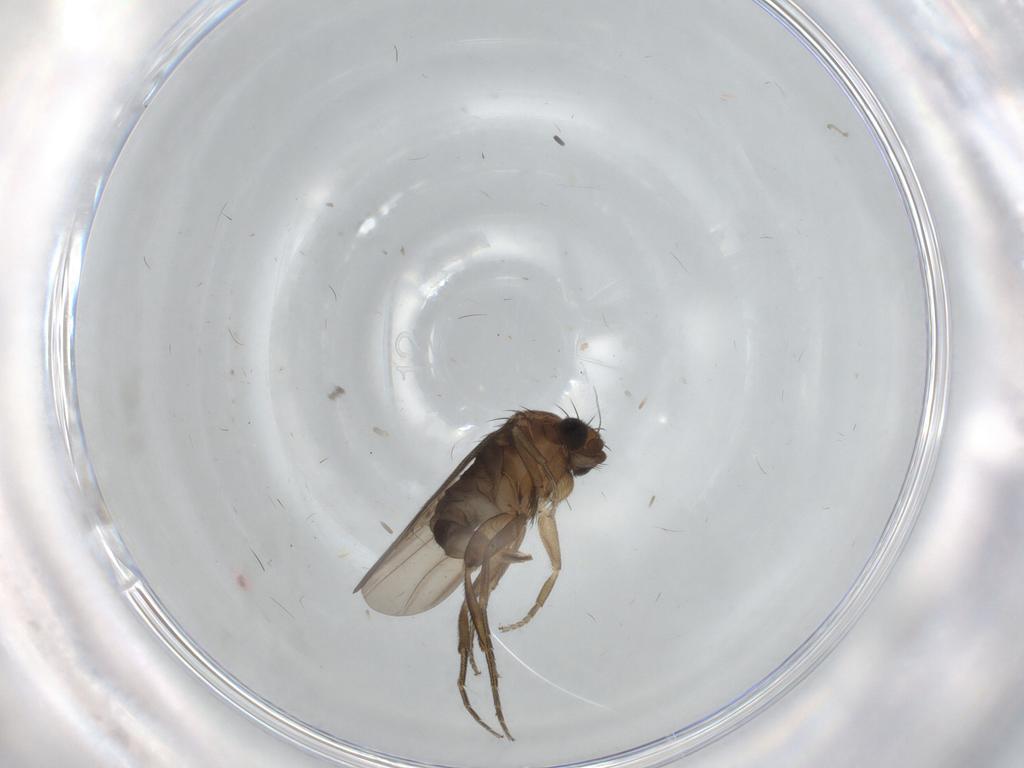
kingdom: Animalia
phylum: Arthropoda
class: Insecta
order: Diptera
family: Phoridae
